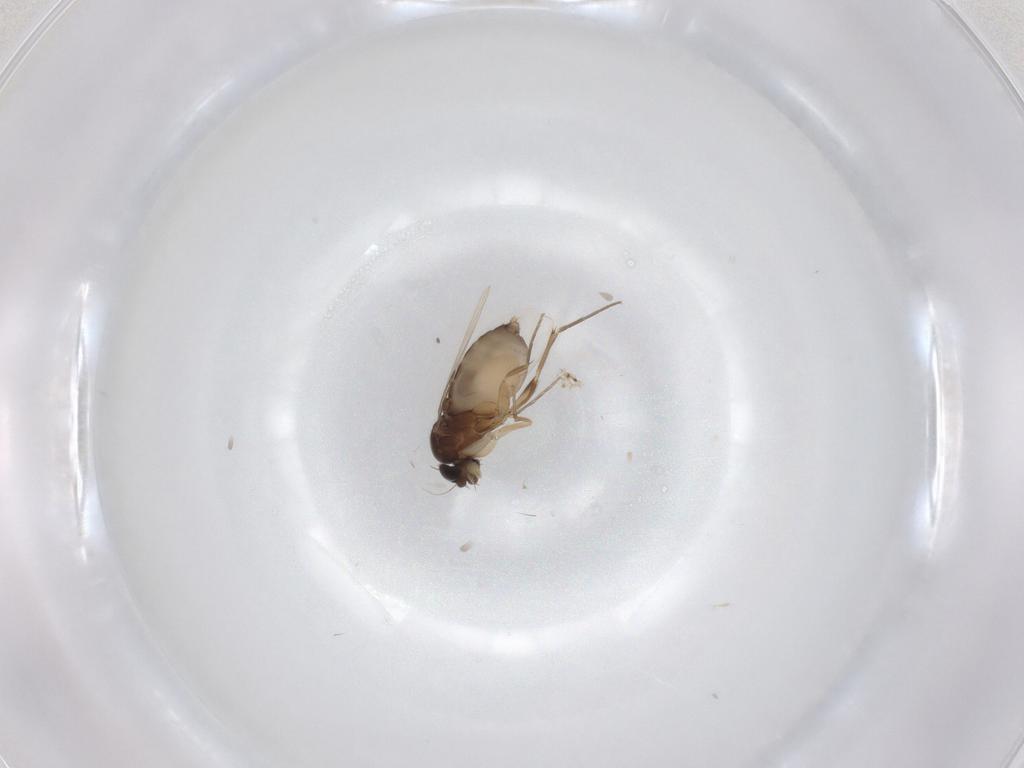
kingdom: Animalia
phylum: Arthropoda
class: Insecta
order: Diptera
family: Phoridae
